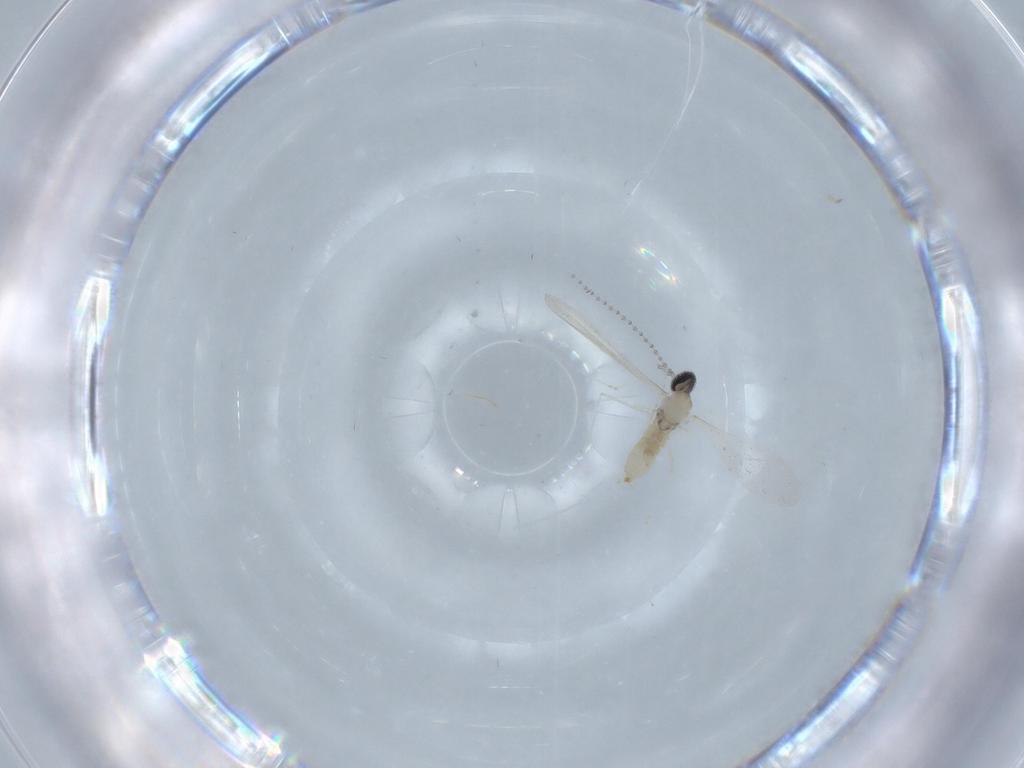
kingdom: Animalia
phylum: Arthropoda
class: Insecta
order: Diptera
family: Cecidomyiidae
